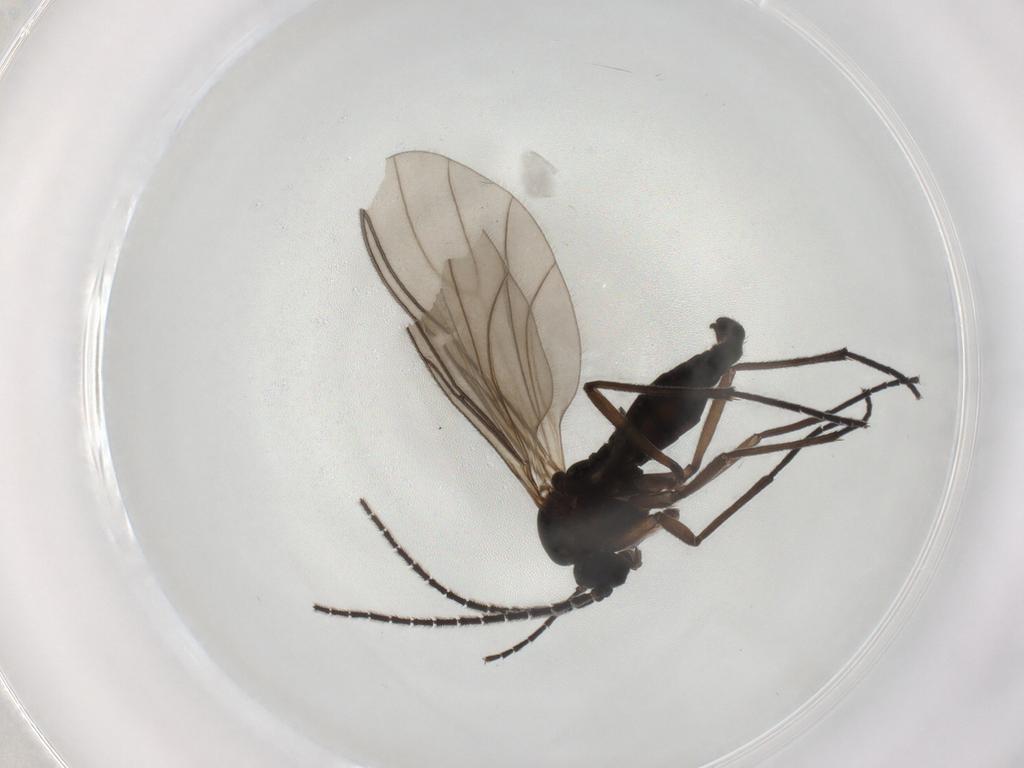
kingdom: Animalia
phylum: Arthropoda
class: Insecta
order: Diptera
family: Sciaridae
